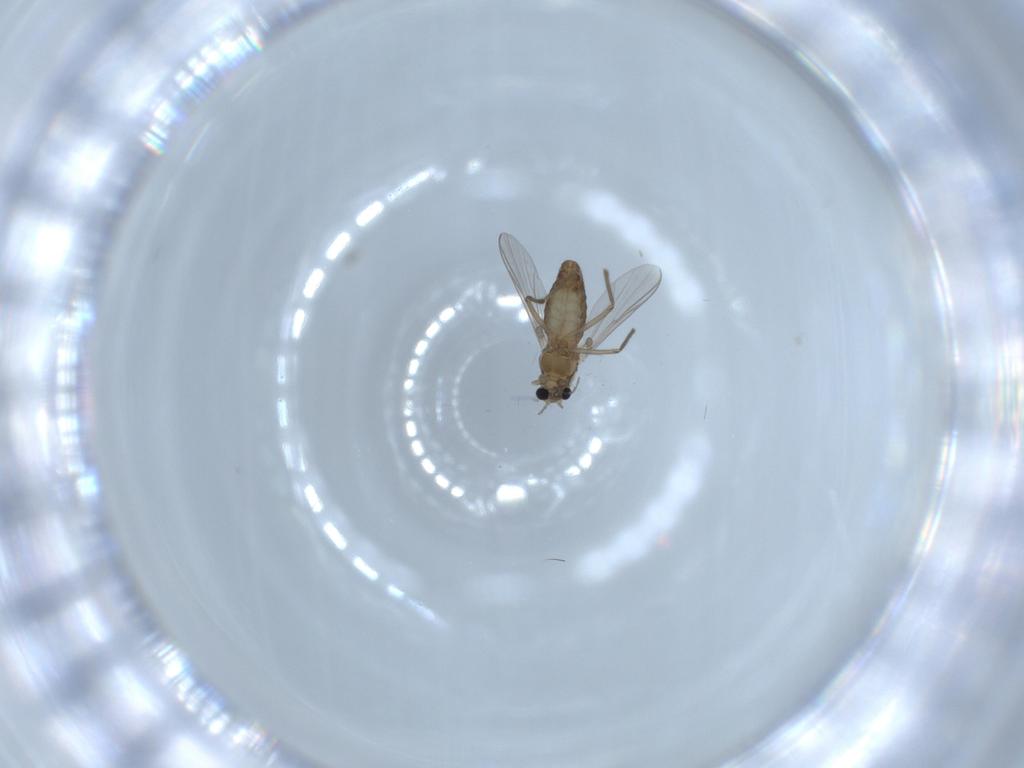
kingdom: Animalia
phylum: Arthropoda
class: Insecta
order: Diptera
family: Chironomidae
